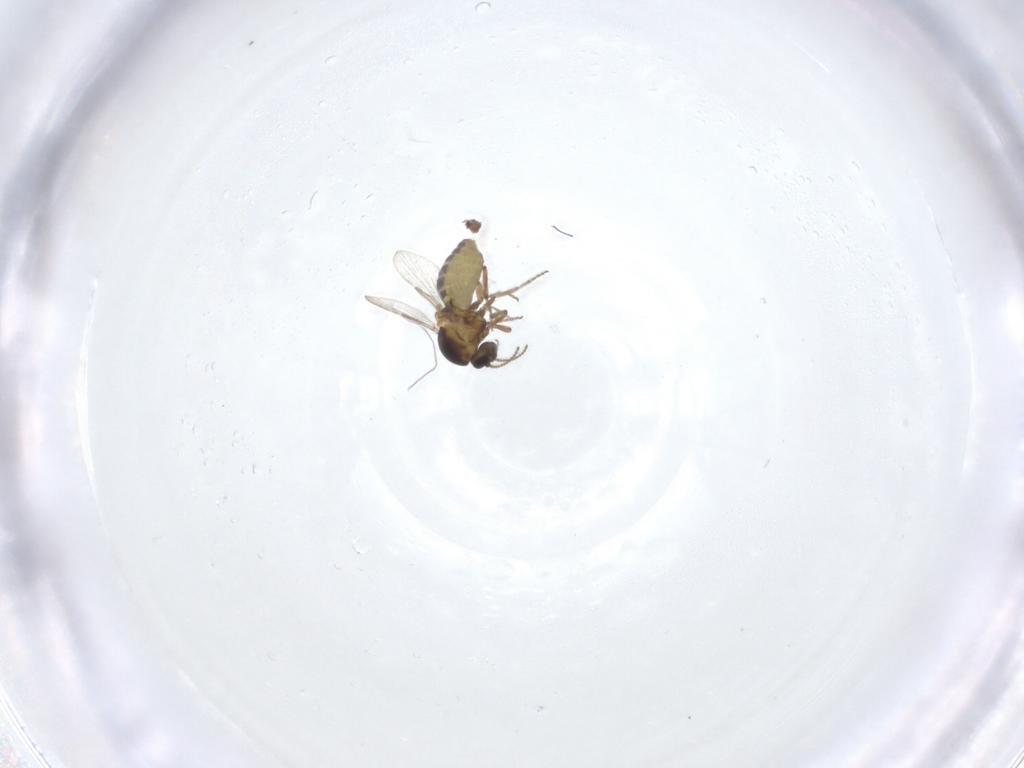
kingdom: Animalia
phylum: Arthropoda
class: Insecta
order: Diptera
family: Ceratopogonidae
